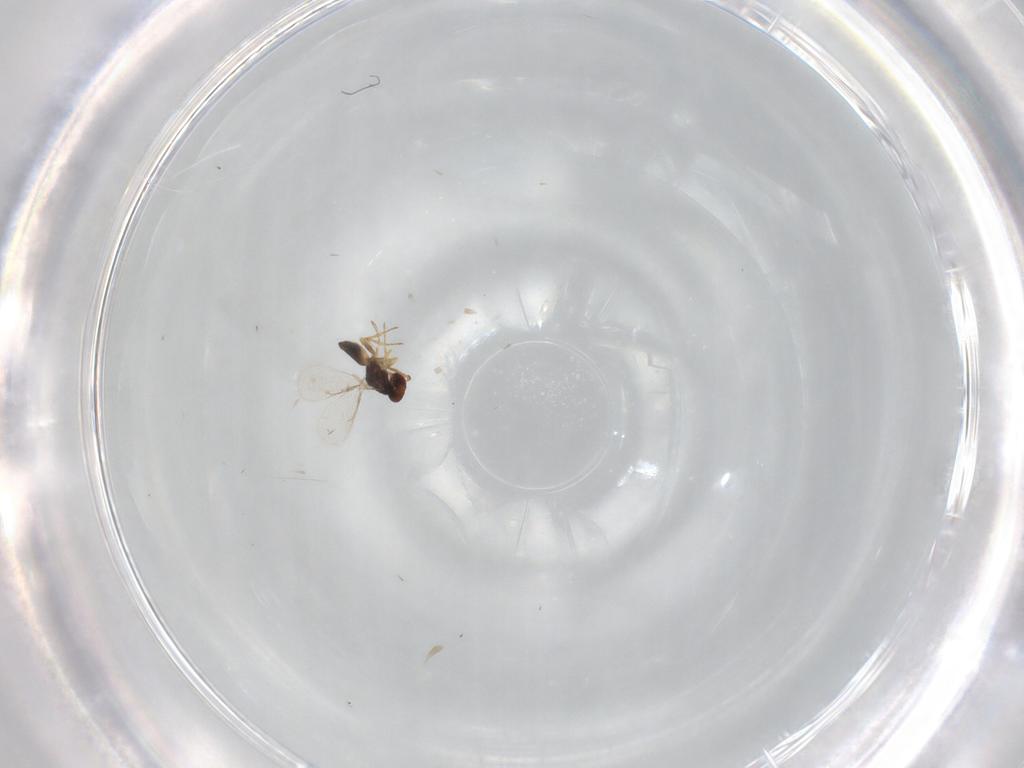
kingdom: Animalia
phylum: Arthropoda
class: Insecta
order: Hymenoptera
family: Eulophidae
